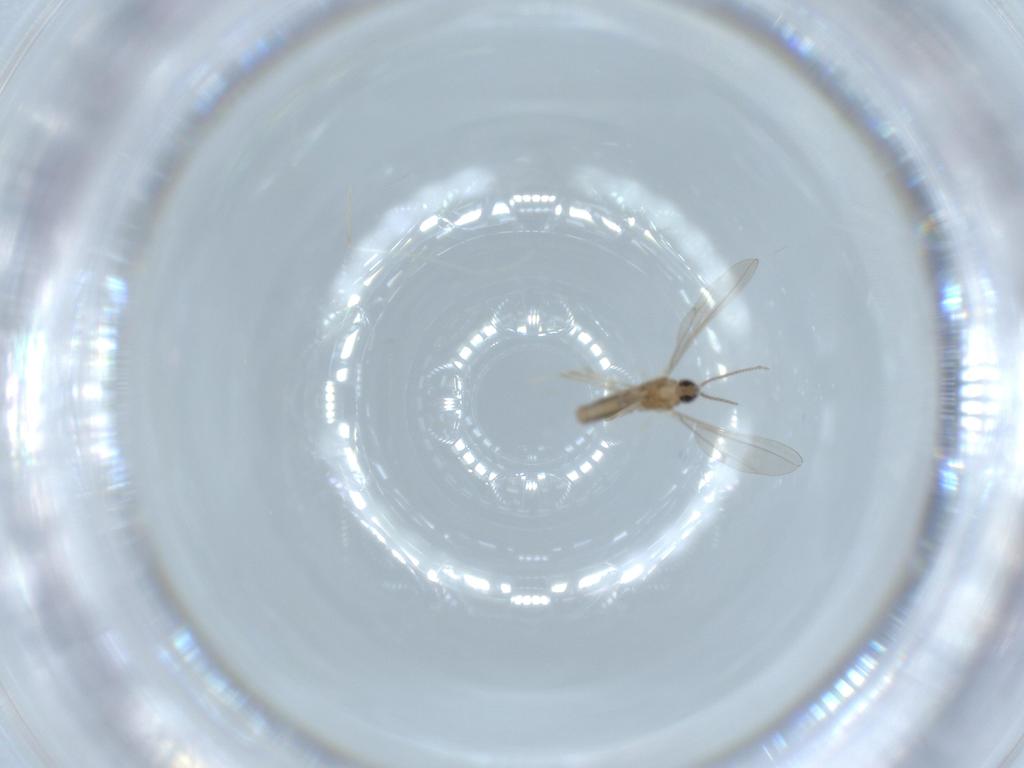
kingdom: Animalia
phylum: Arthropoda
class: Insecta
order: Diptera
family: Cecidomyiidae
